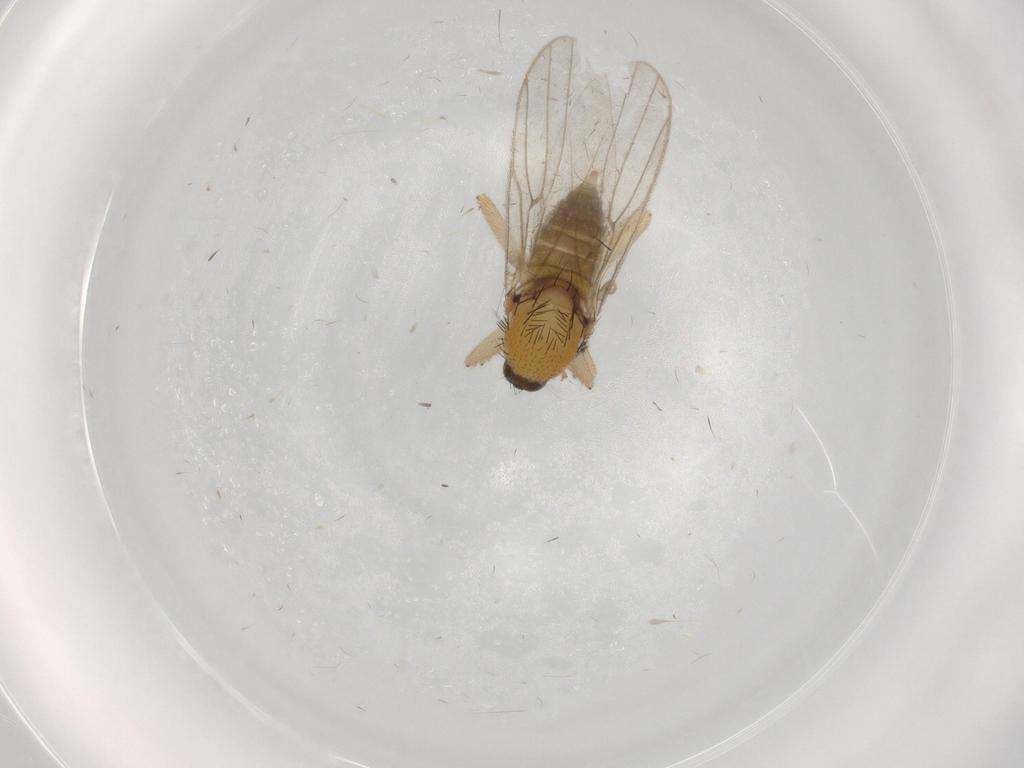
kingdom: Animalia
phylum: Arthropoda
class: Insecta
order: Diptera
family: Hybotidae
